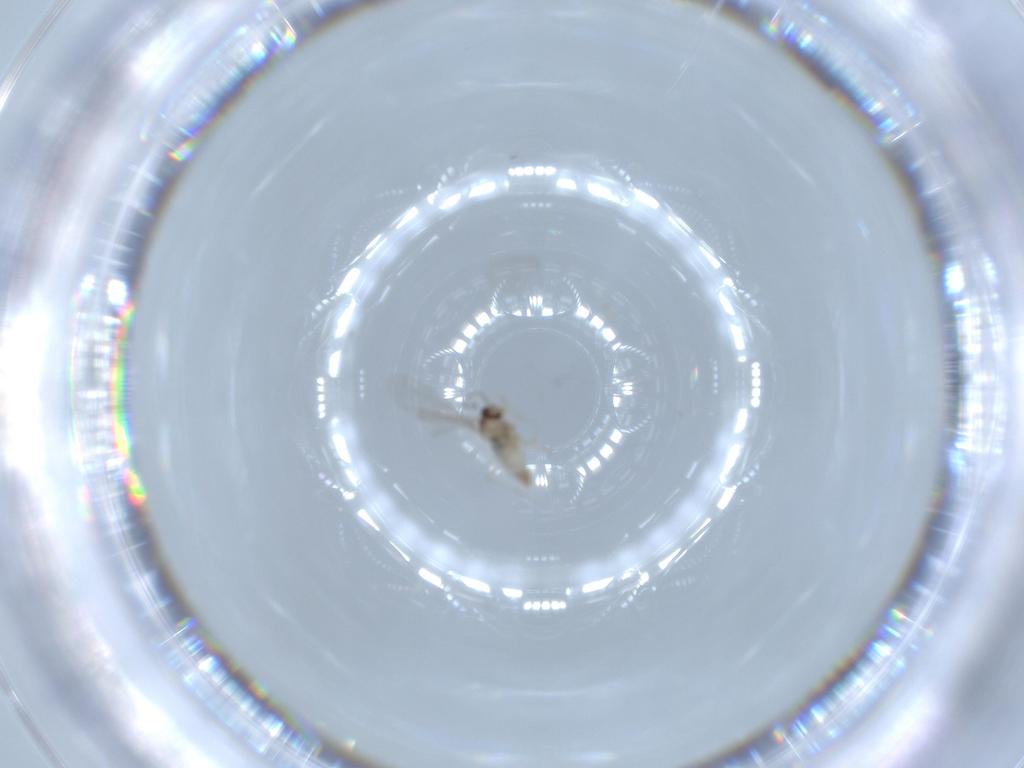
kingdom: Animalia
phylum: Arthropoda
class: Insecta
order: Diptera
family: Cecidomyiidae
